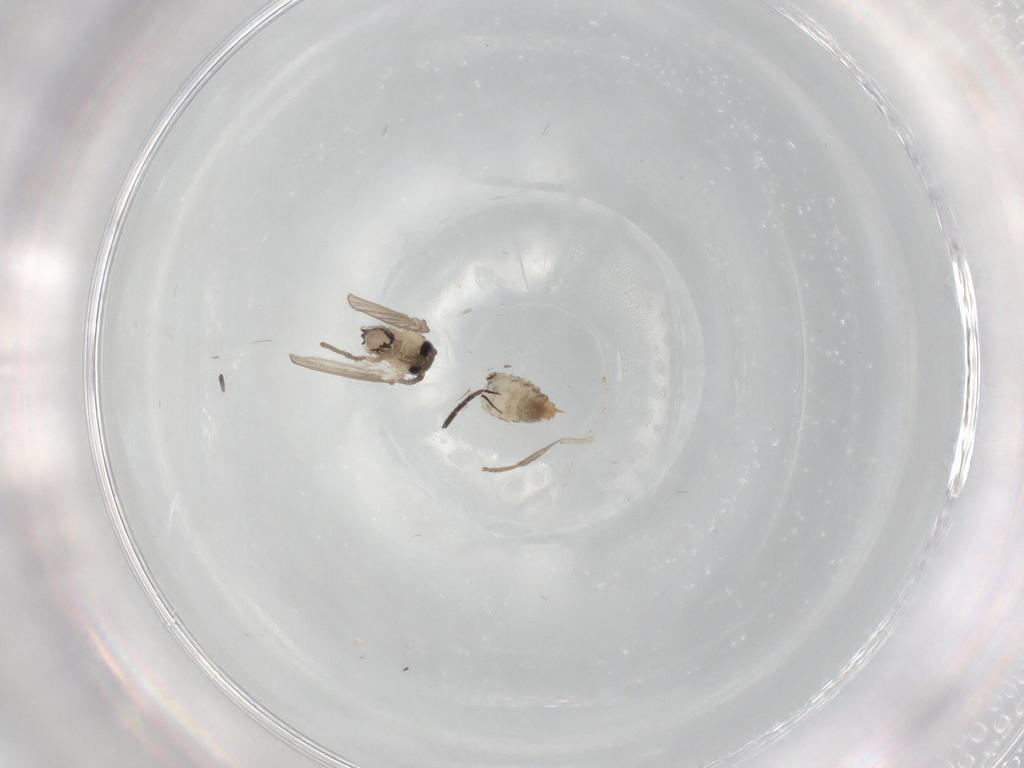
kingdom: Animalia
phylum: Arthropoda
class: Insecta
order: Diptera
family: Psychodidae
